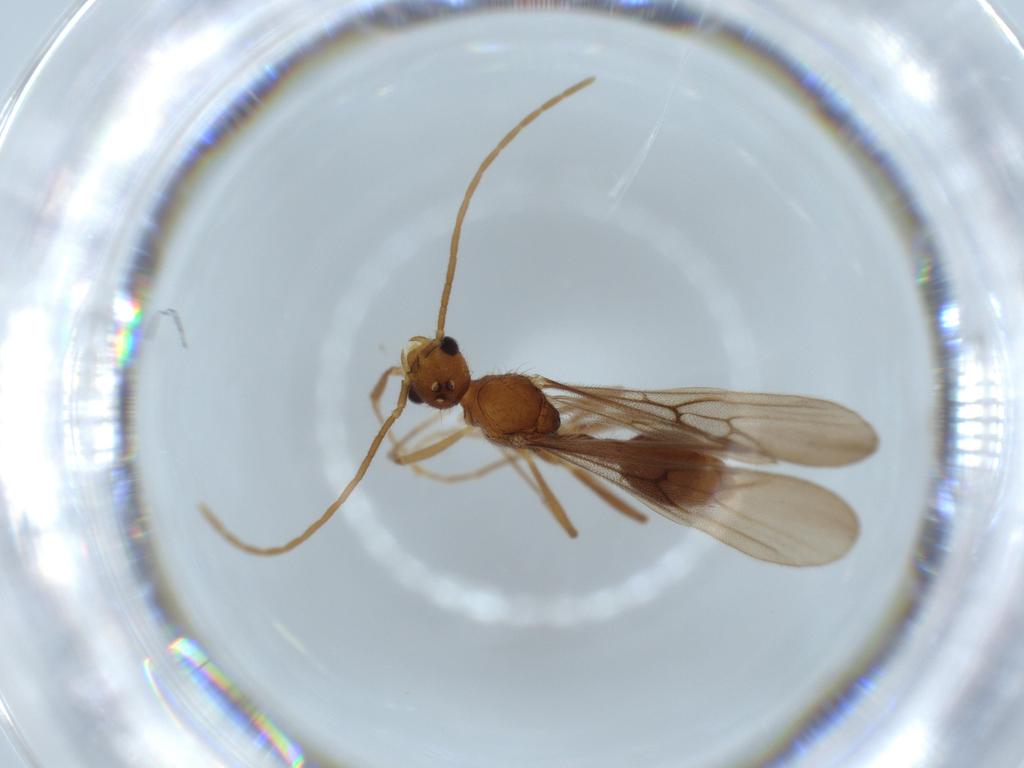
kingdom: Animalia
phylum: Arthropoda
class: Insecta
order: Hymenoptera
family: Formicidae
